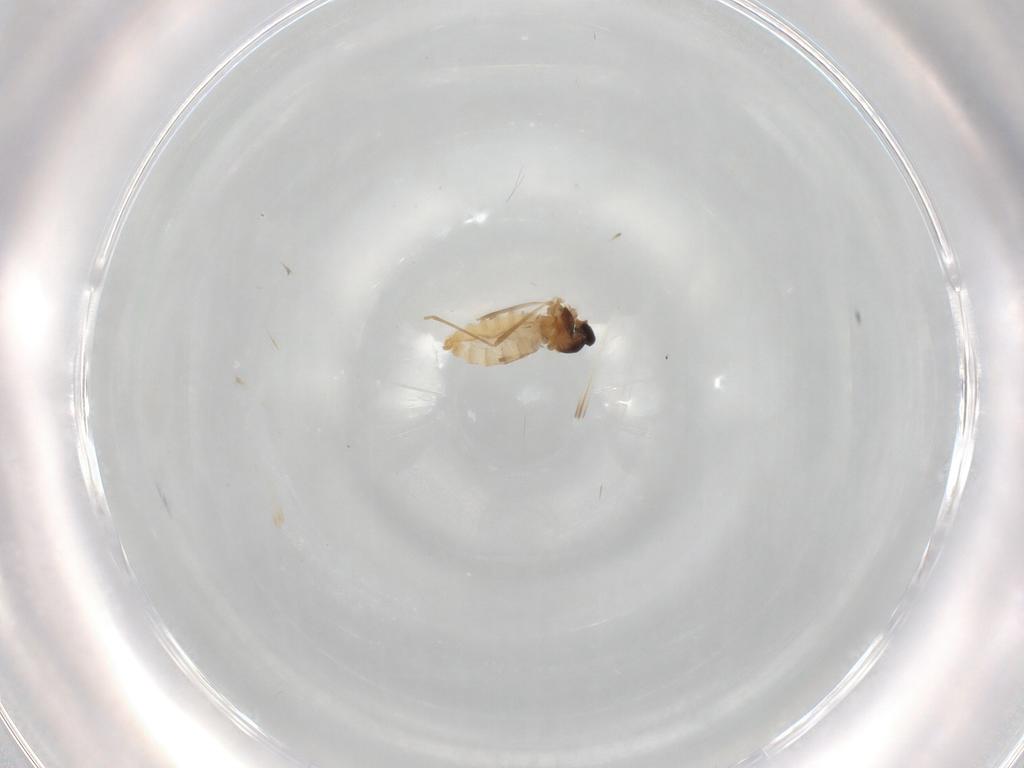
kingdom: Animalia
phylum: Arthropoda
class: Insecta
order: Diptera
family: Cecidomyiidae
